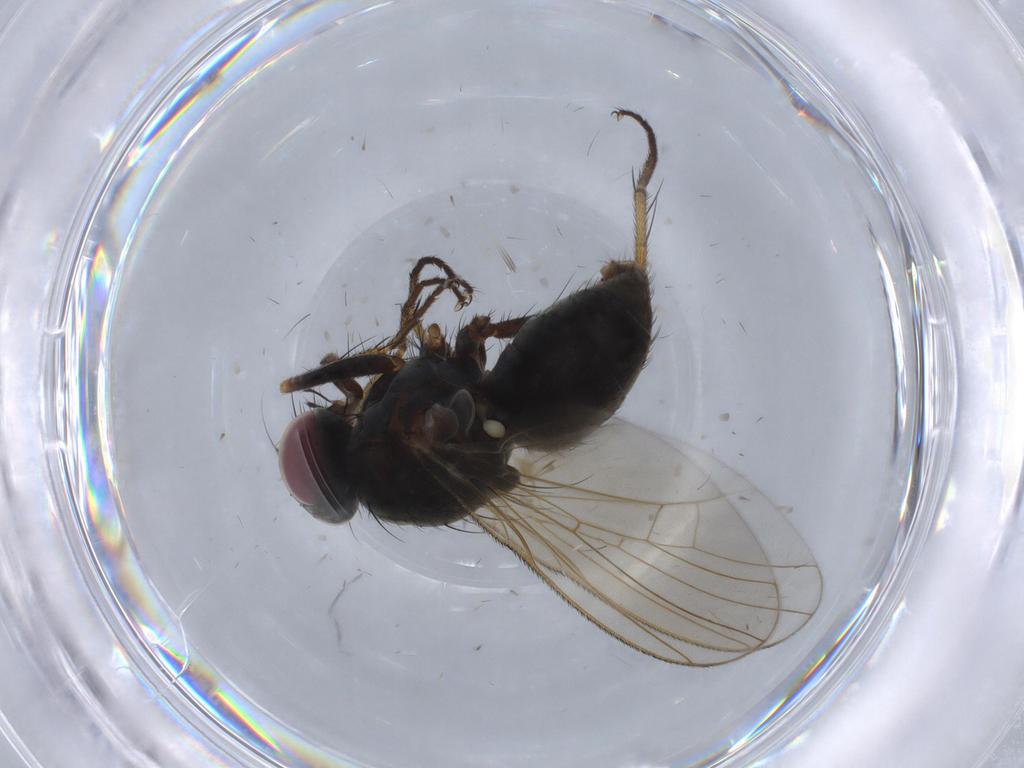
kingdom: Animalia
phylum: Arthropoda
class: Insecta
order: Diptera
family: Muscidae
